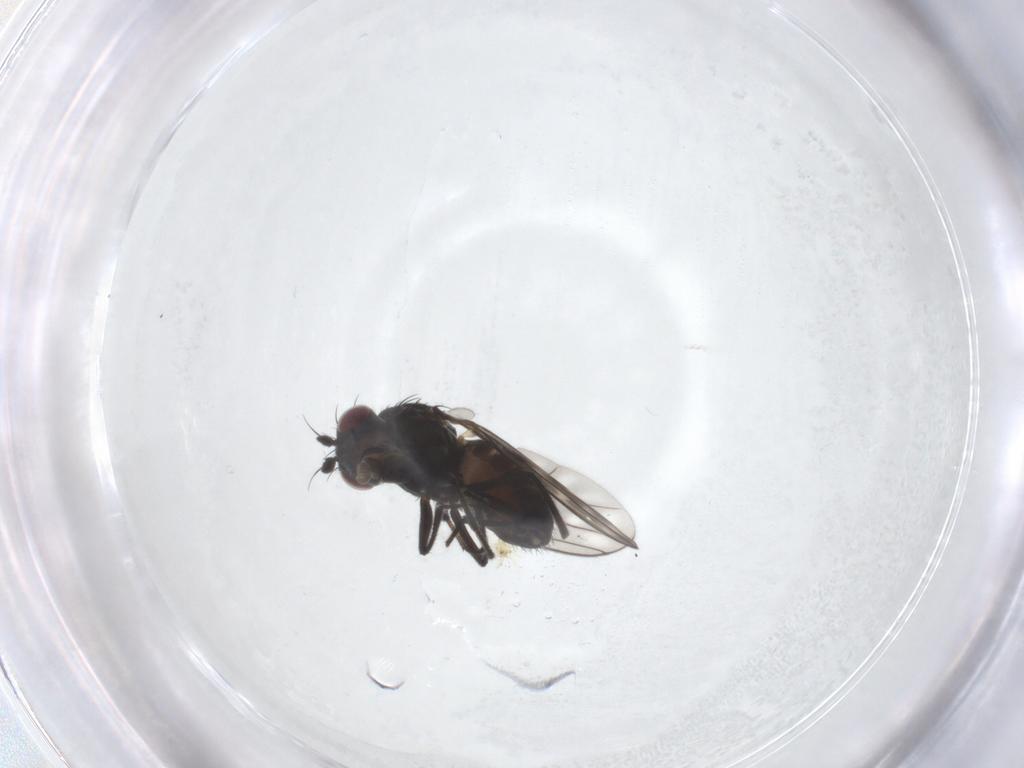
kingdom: Animalia
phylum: Arthropoda
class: Insecta
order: Diptera
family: Ephydridae
